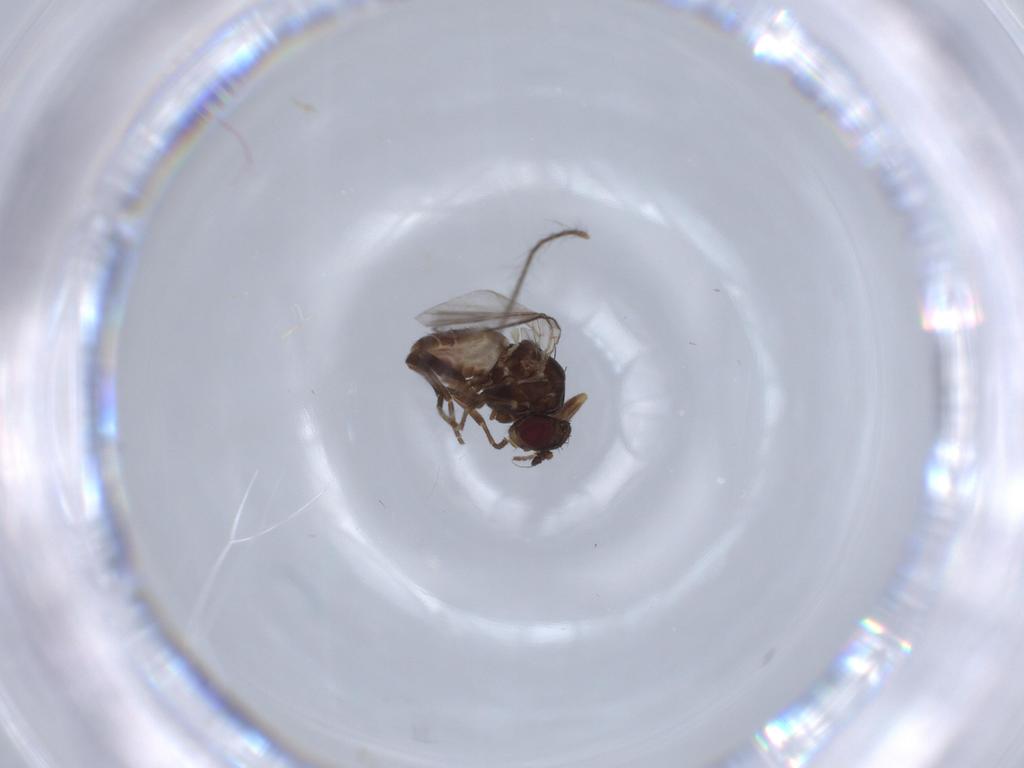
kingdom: Animalia
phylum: Arthropoda
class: Insecta
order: Diptera
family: Agromyzidae
